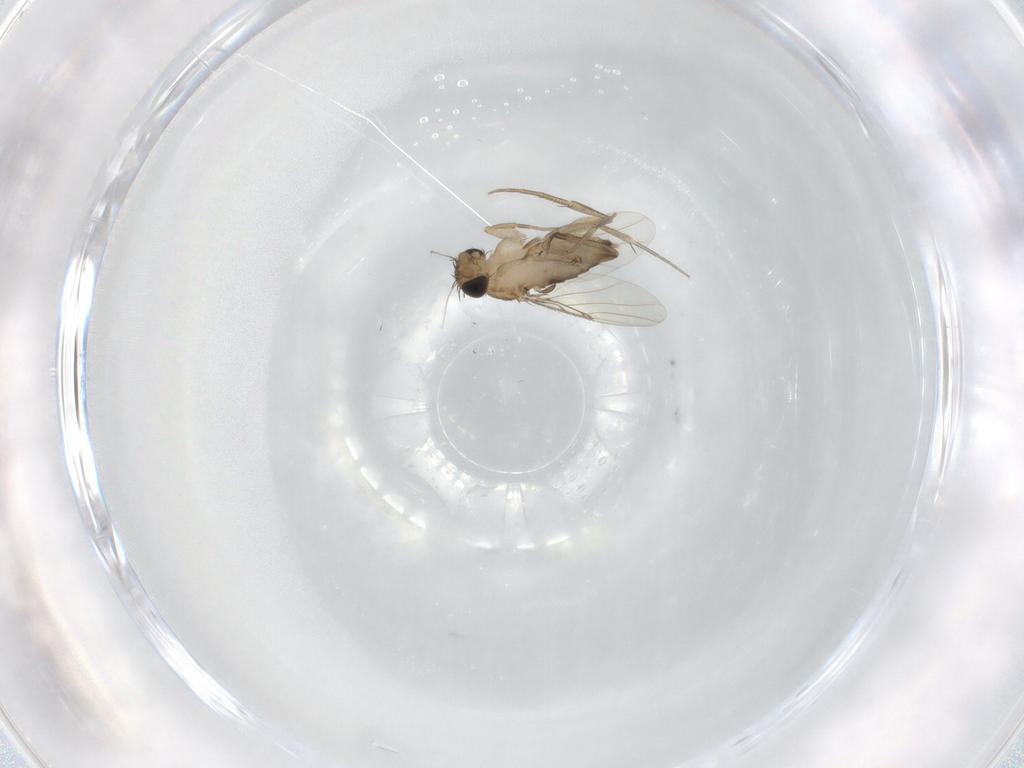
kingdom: Animalia
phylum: Arthropoda
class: Insecta
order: Diptera
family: Phoridae
